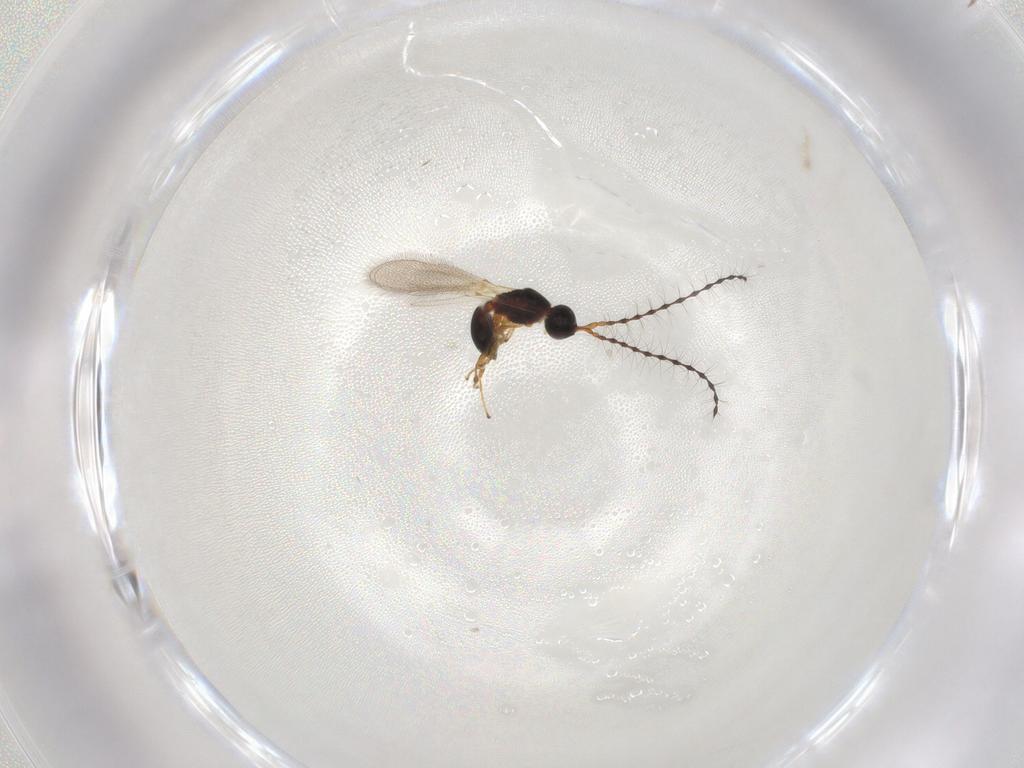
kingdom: Animalia
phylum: Arthropoda
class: Insecta
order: Hymenoptera
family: Diapriidae
